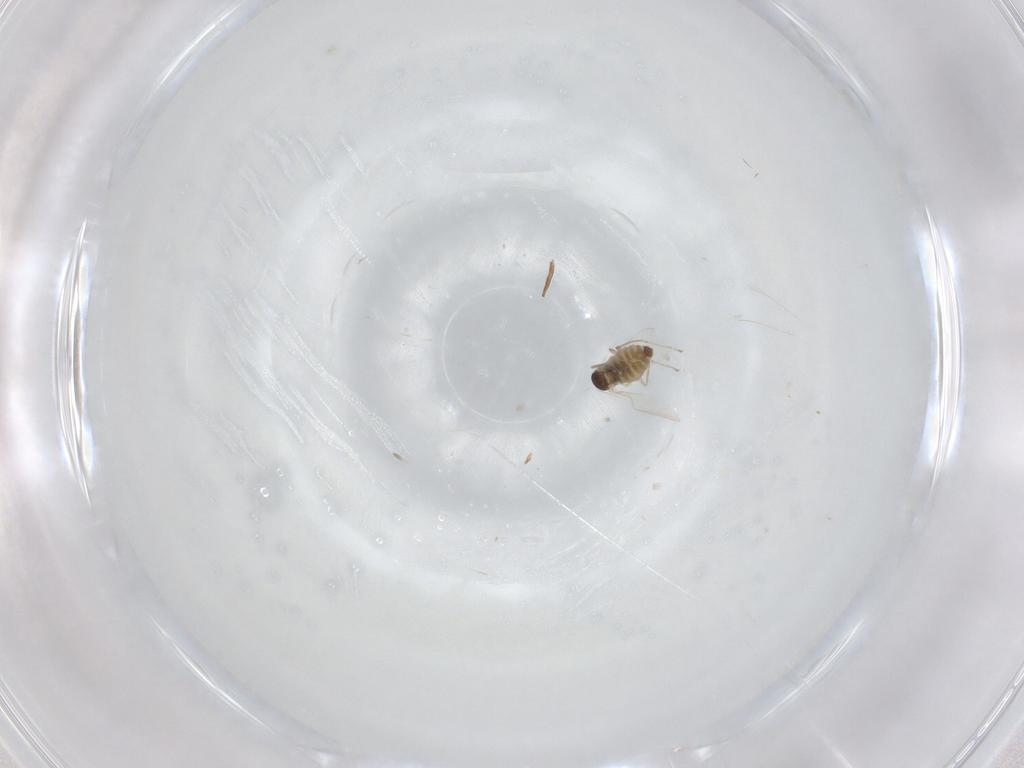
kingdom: Animalia
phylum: Arthropoda
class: Insecta
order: Diptera
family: Cecidomyiidae
